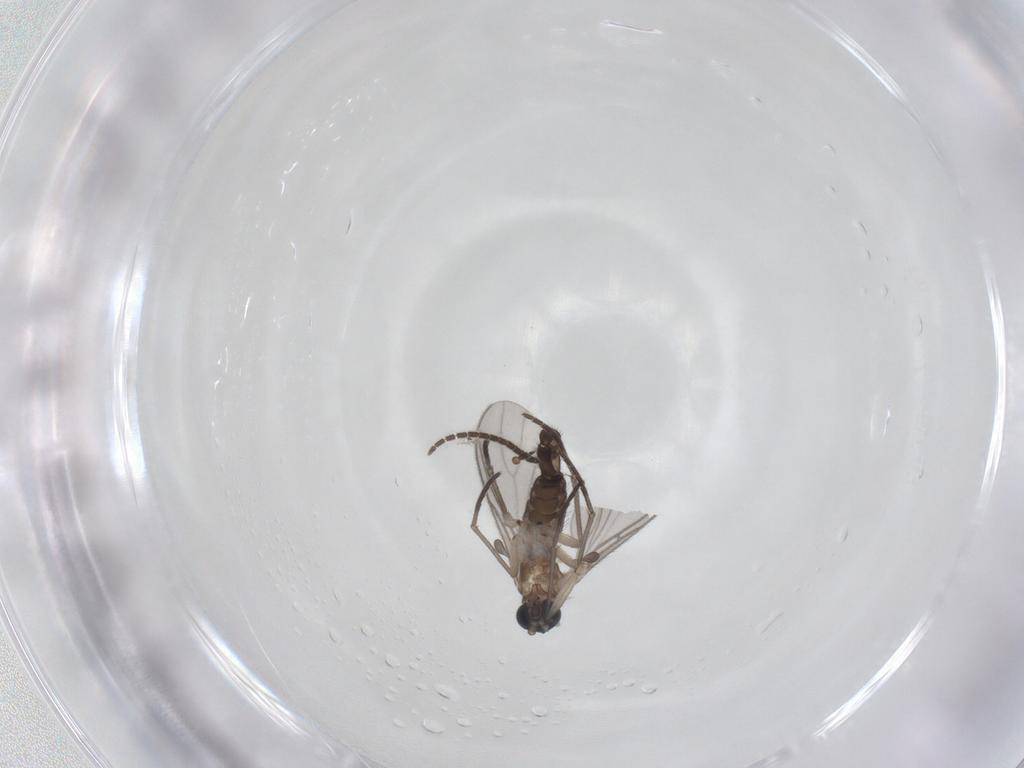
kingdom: Animalia
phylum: Arthropoda
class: Insecta
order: Diptera
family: Sciaridae
